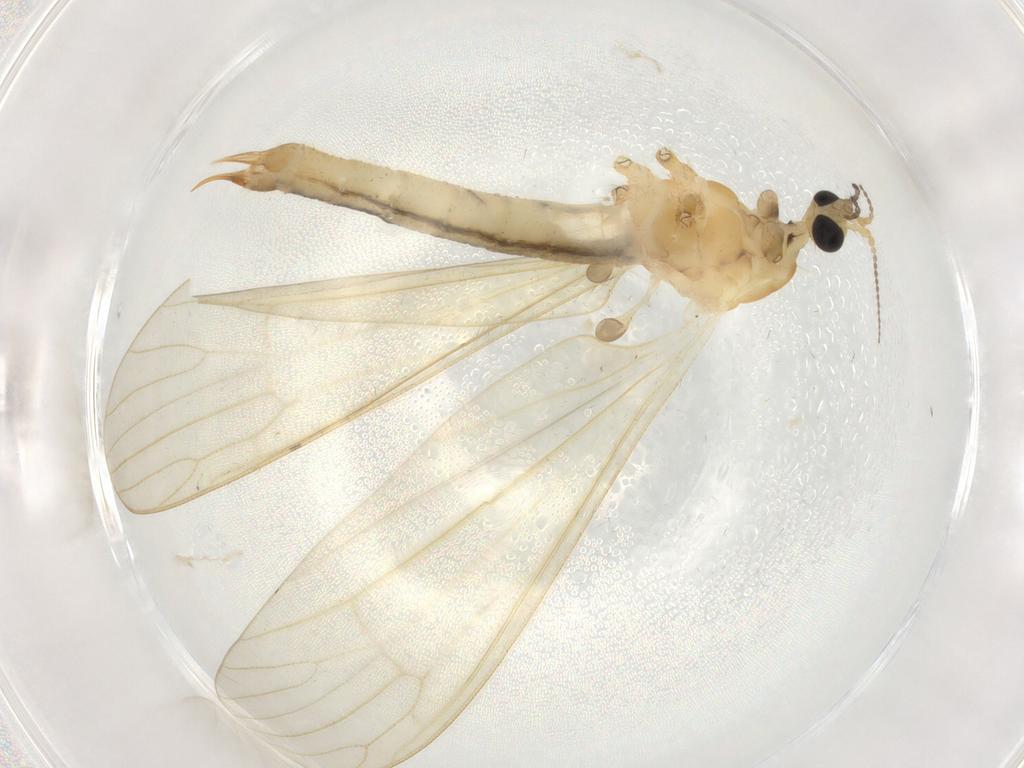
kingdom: Animalia
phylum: Arthropoda
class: Insecta
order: Diptera
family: Limoniidae
